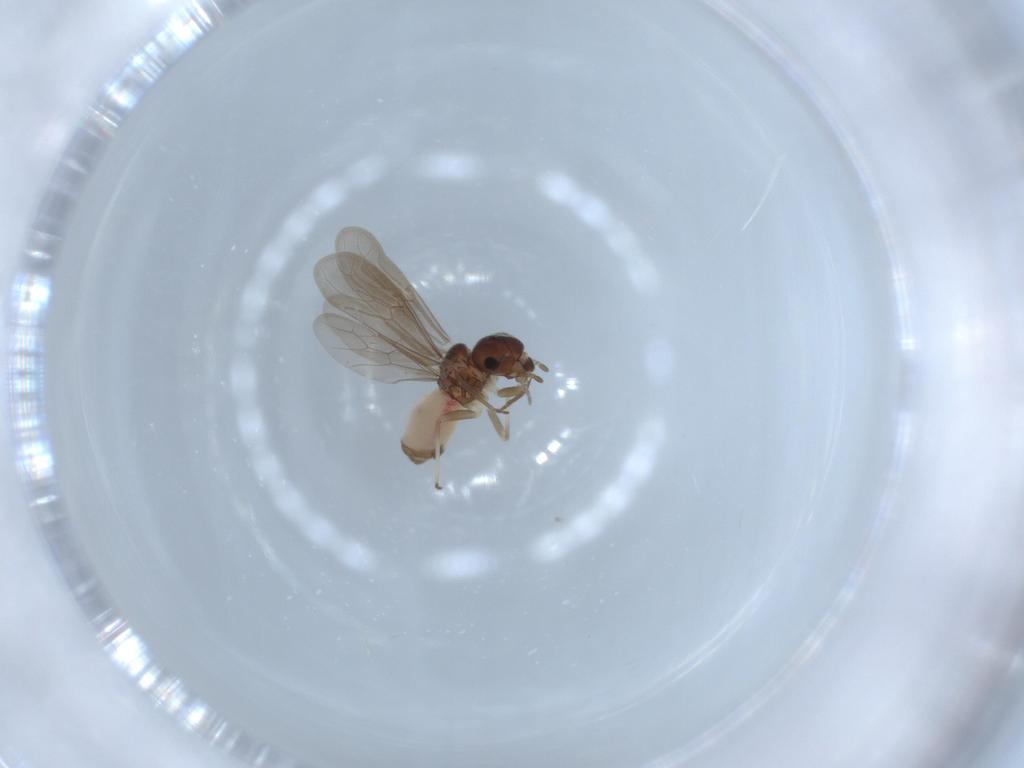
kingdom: Animalia
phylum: Arthropoda
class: Insecta
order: Psocodea
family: Asiopsocidae
